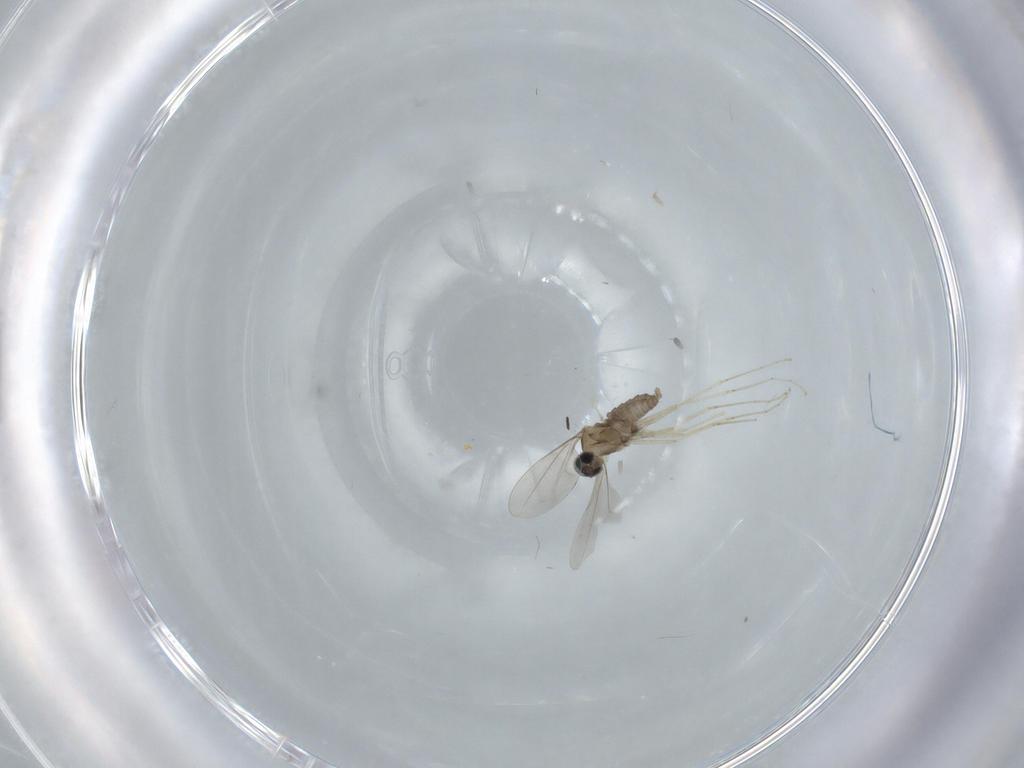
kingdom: Animalia
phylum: Arthropoda
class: Insecta
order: Diptera
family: Cecidomyiidae
